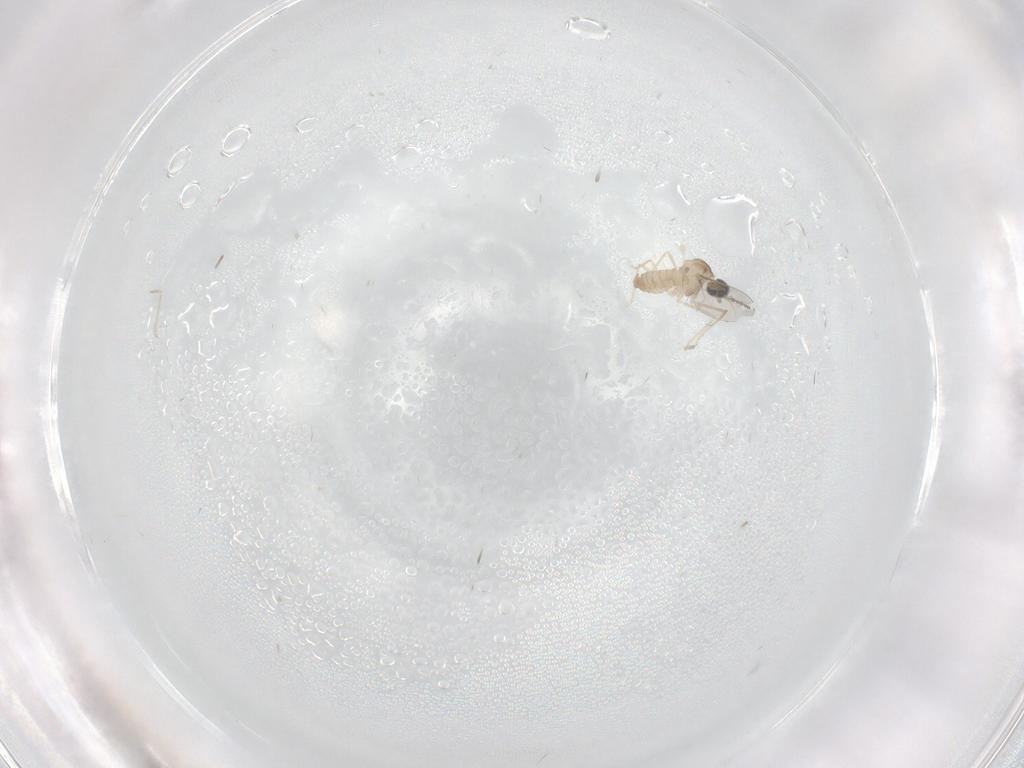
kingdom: Animalia
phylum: Arthropoda
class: Insecta
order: Diptera
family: Cecidomyiidae
